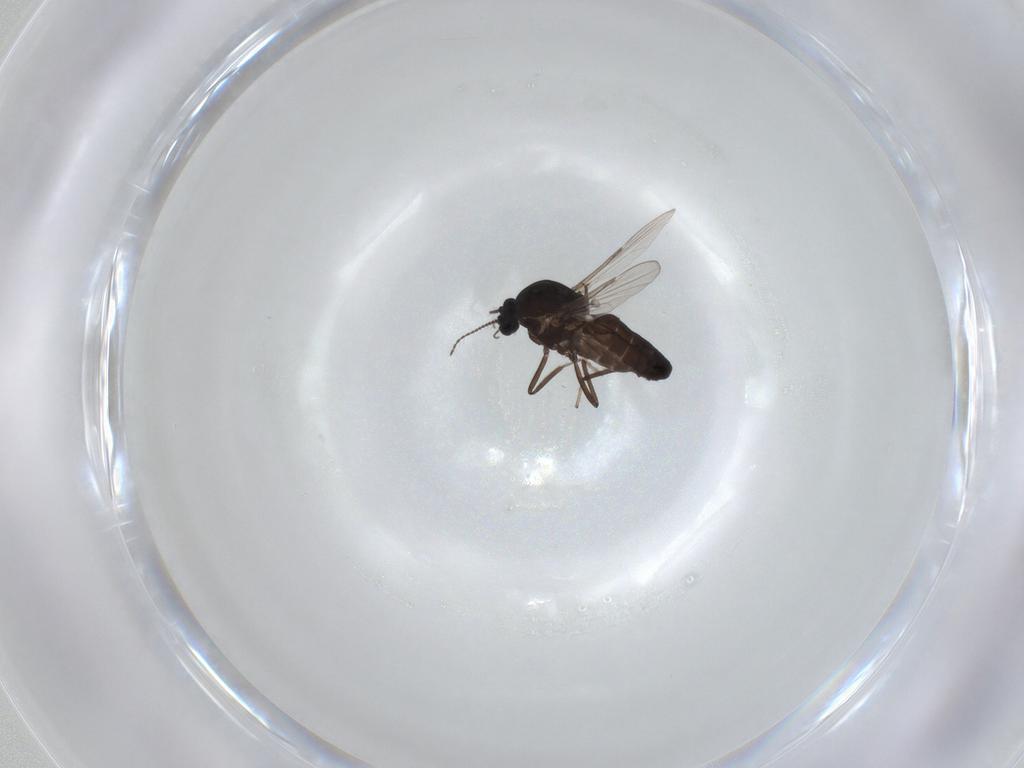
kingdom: Animalia
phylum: Arthropoda
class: Insecta
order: Diptera
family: Ceratopogonidae
